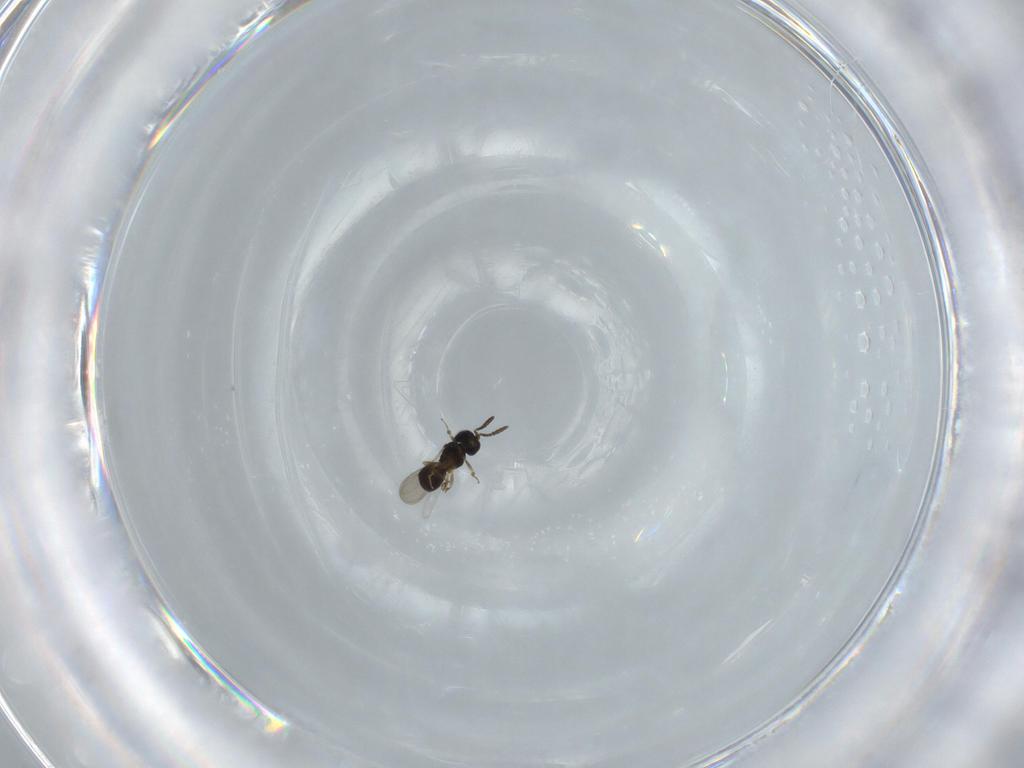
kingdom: Animalia
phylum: Arthropoda
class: Insecta
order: Hymenoptera
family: Scelionidae
